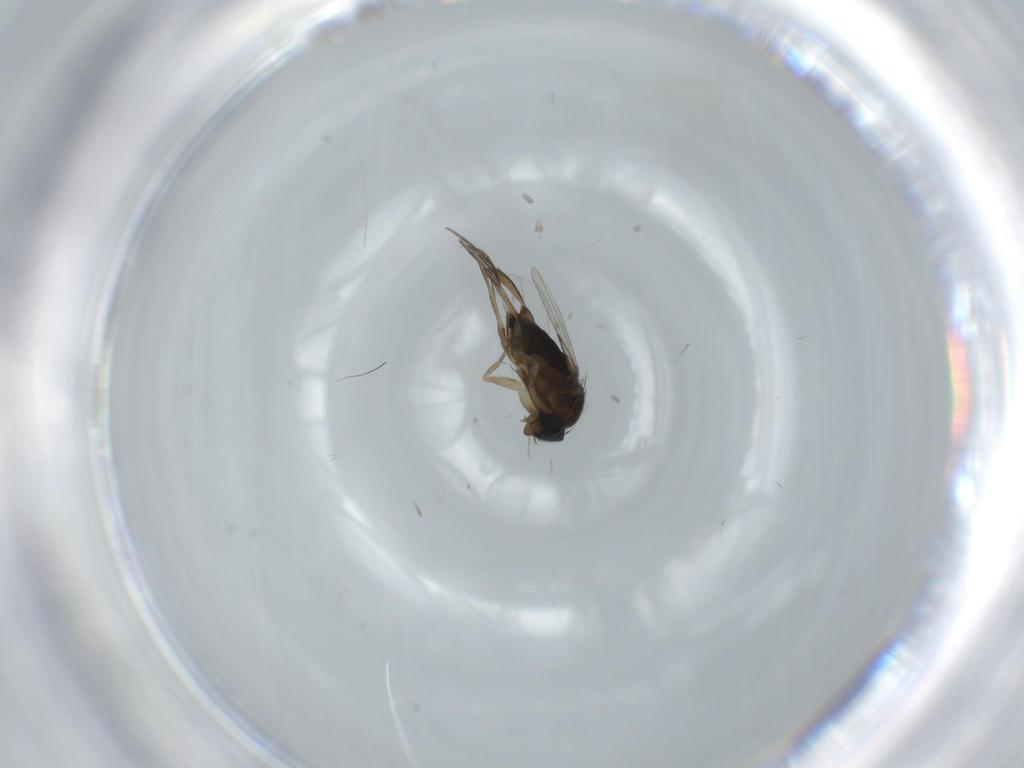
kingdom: Animalia
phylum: Arthropoda
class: Insecta
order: Diptera
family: Phoridae
